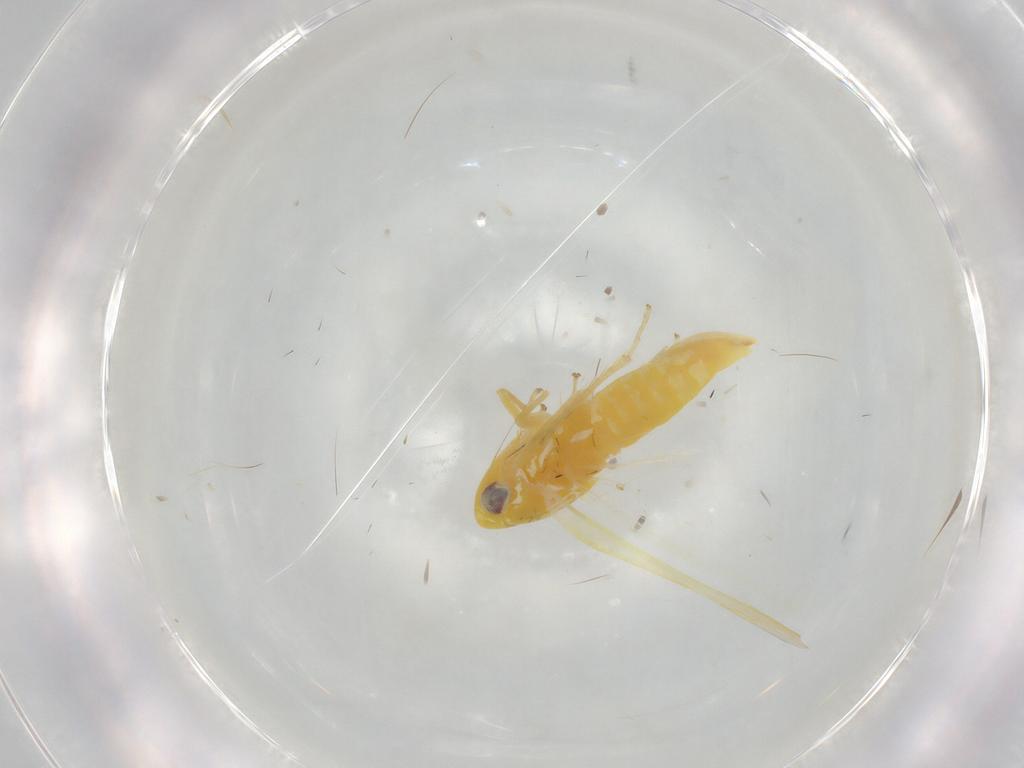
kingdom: Animalia
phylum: Arthropoda
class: Insecta
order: Hemiptera
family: Cicadellidae
